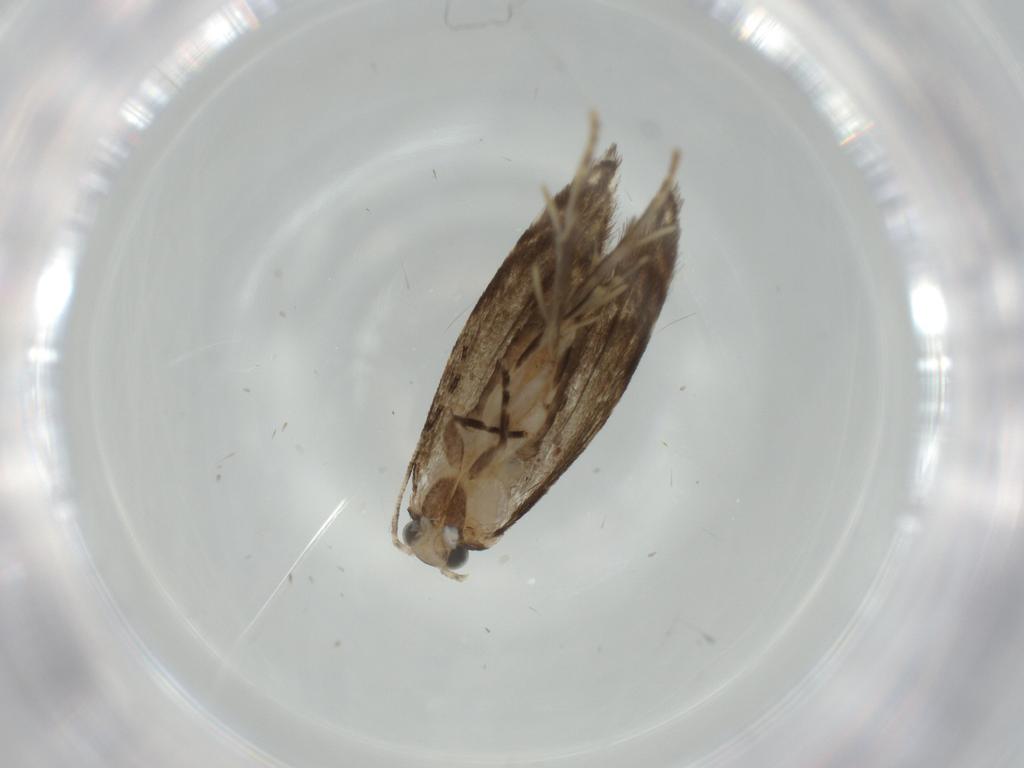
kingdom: Animalia
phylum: Arthropoda
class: Insecta
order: Lepidoptera
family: Tineidae
